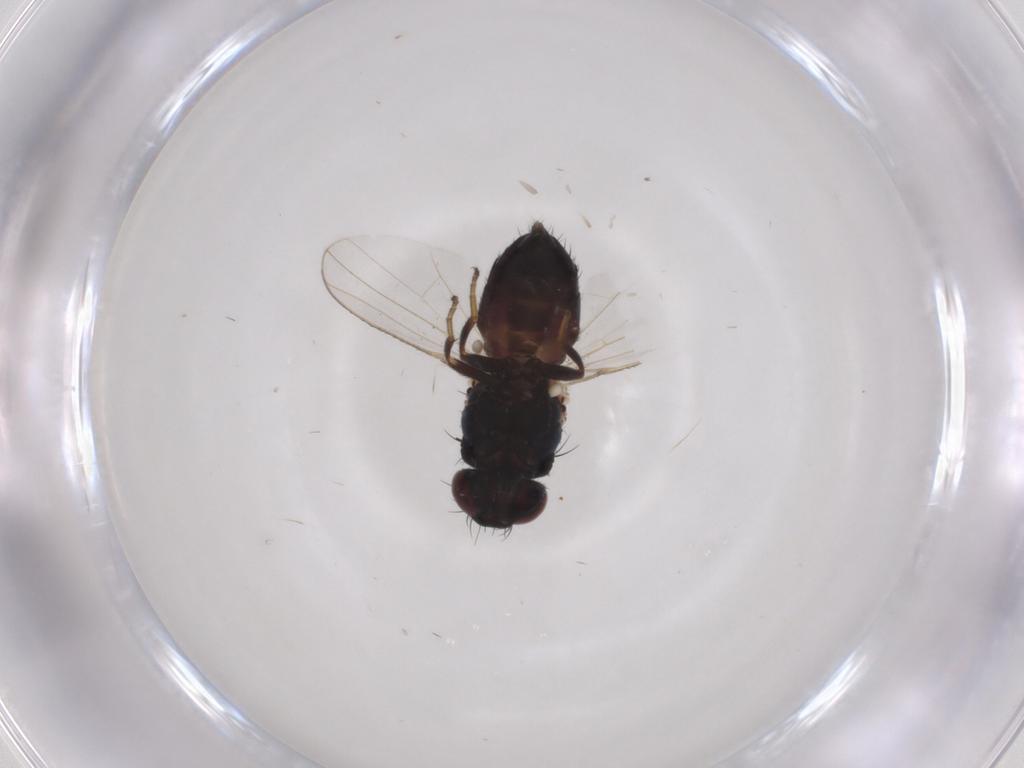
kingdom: Animalia
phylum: Arthropoda
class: Insecta
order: Diptera
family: Carnidae
